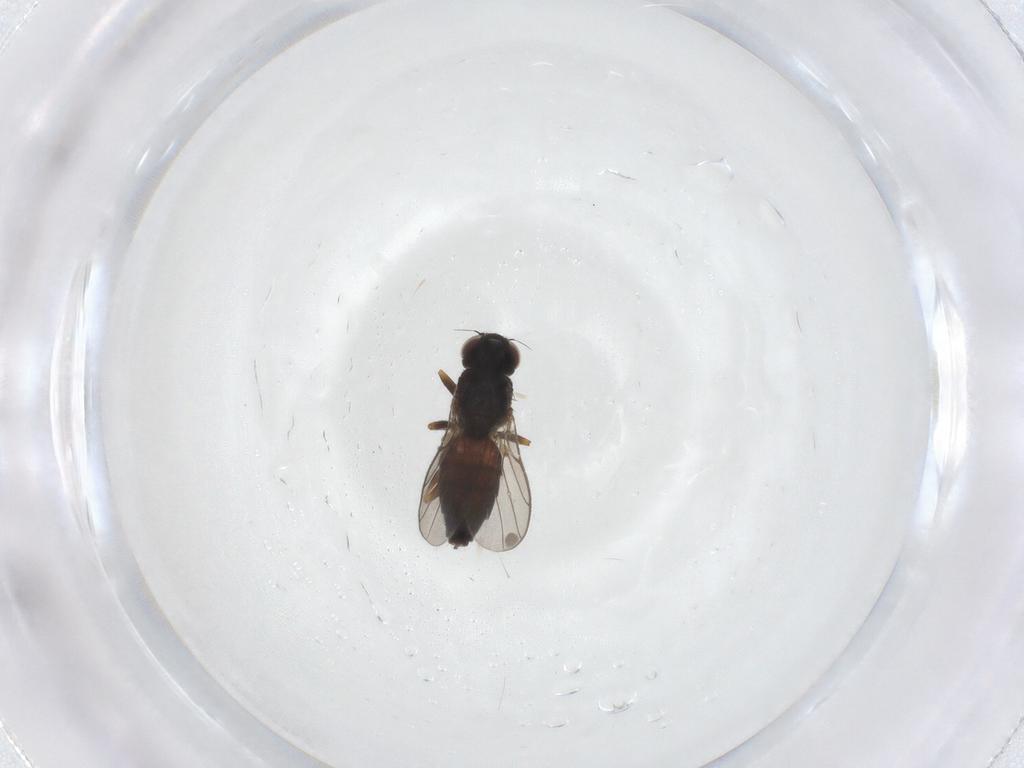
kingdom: Animalia
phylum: Arthropoda
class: Insecta
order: Diptera
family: Chloropidae
